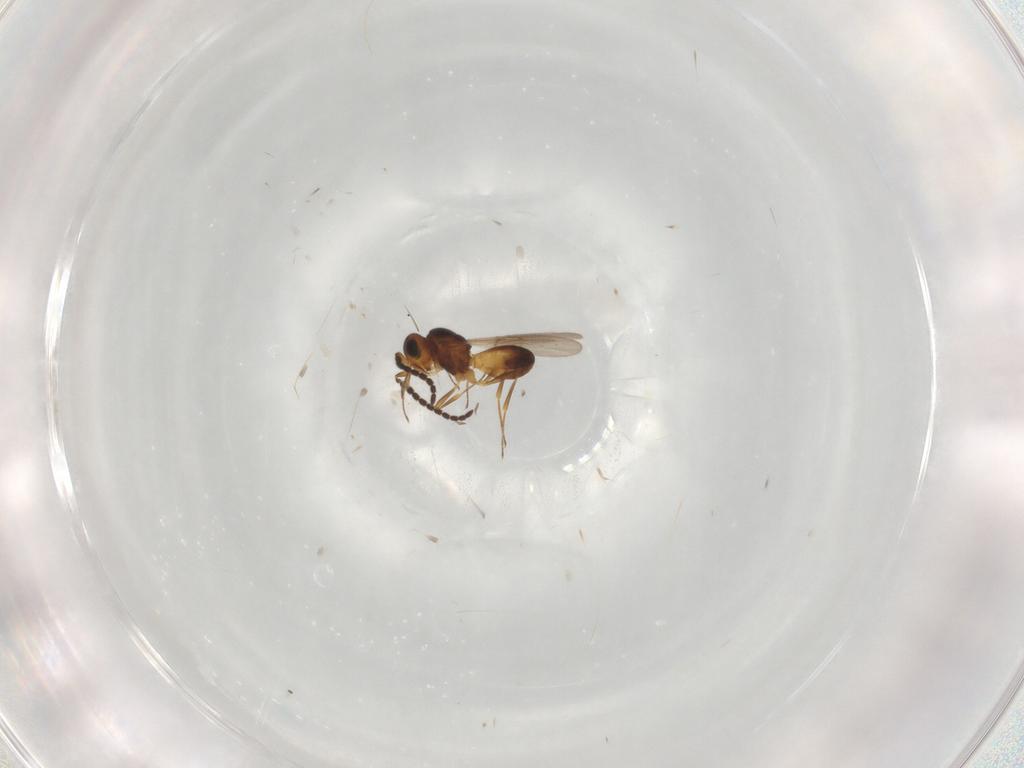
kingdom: Animalia
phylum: Arthropoda
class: Insecta
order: Hymenoptera
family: Scelionidae
